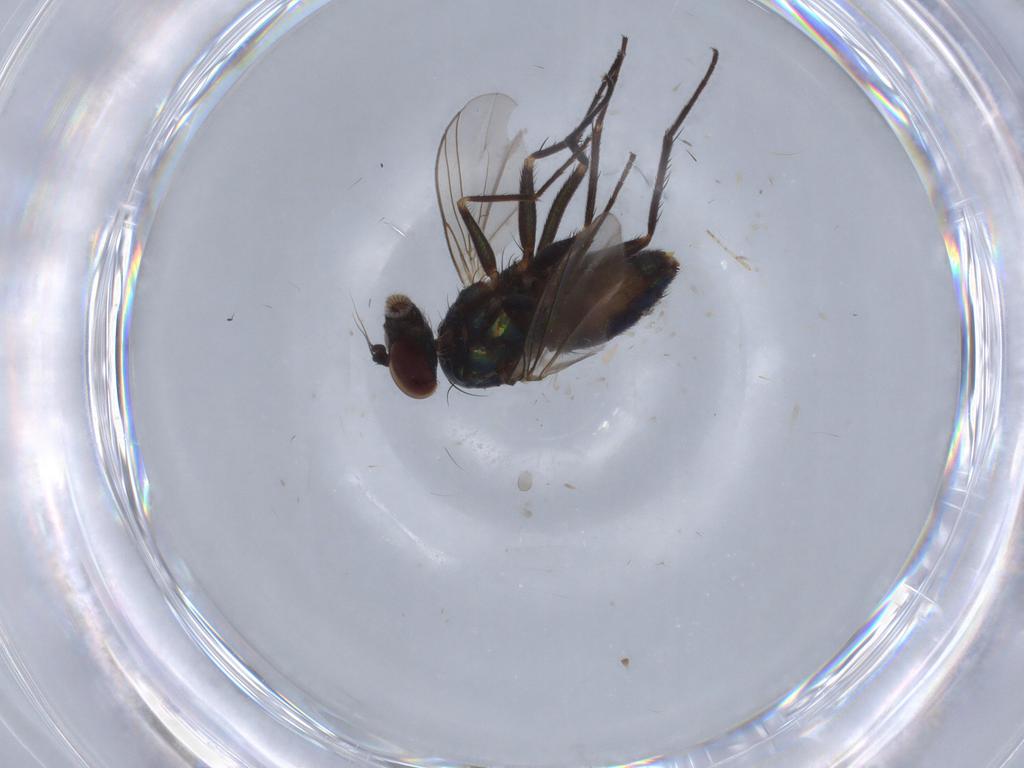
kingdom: Animalia
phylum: Arthropoda
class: Insecta
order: Diptera
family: Dolichopodidae
